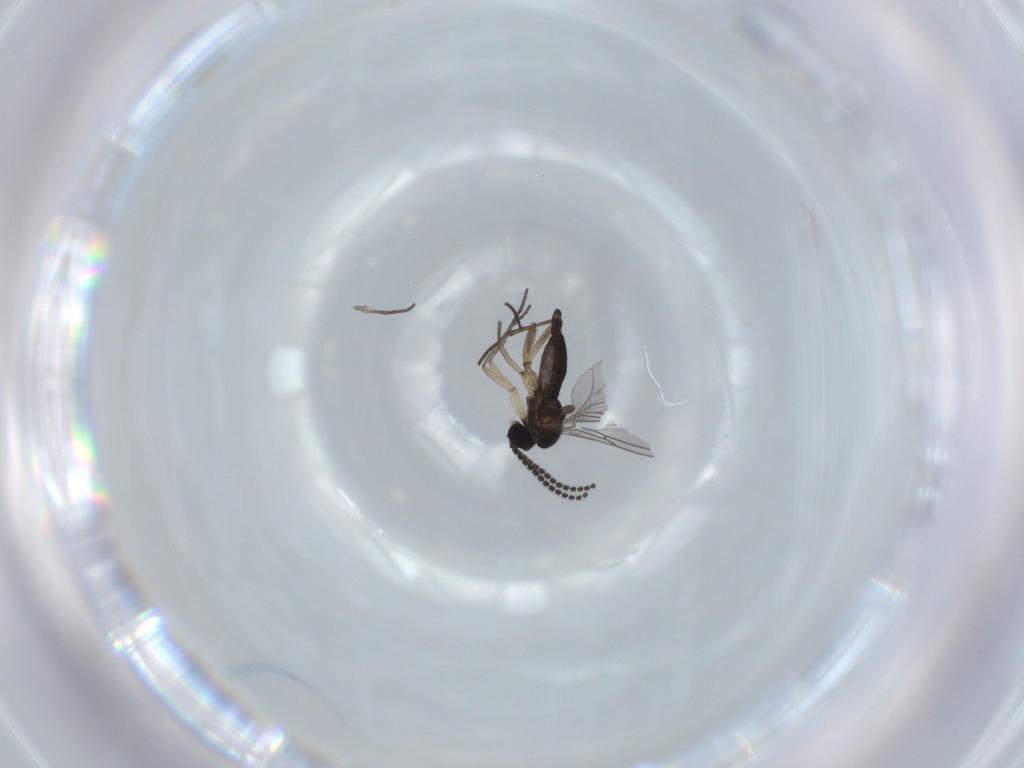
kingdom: Animalia
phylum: Arthropoda
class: Insecta
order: Diptera
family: Sciaridae
